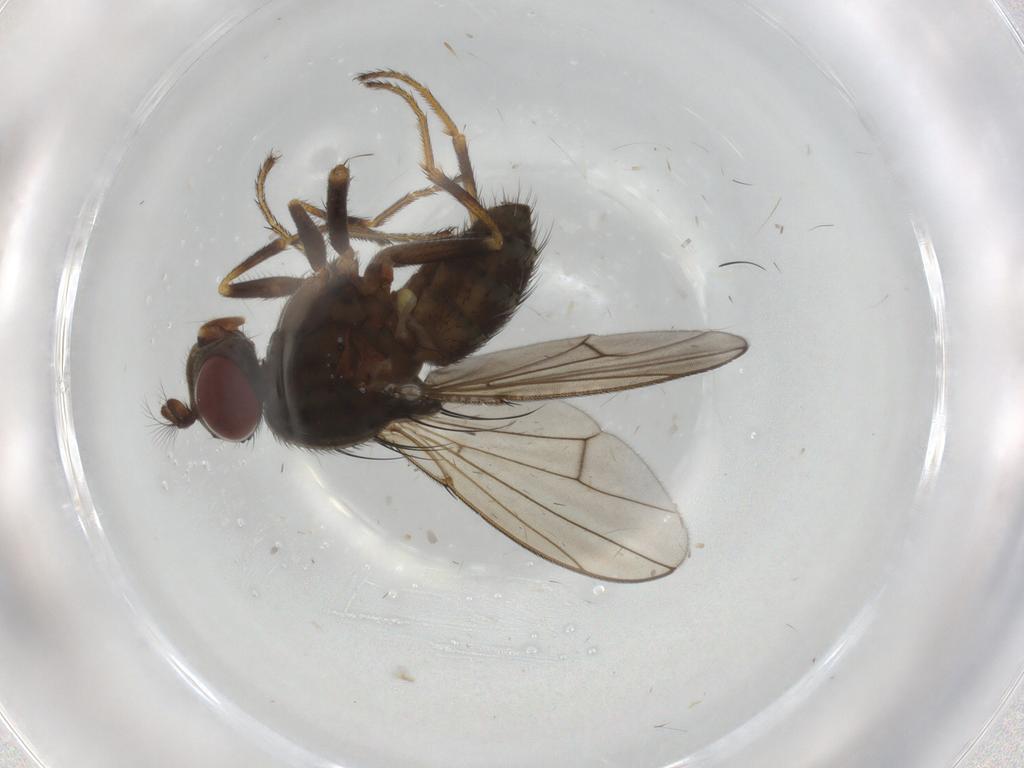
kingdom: Animalia
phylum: Arthropoda
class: Insecta
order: Diptera
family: Ephydridae
